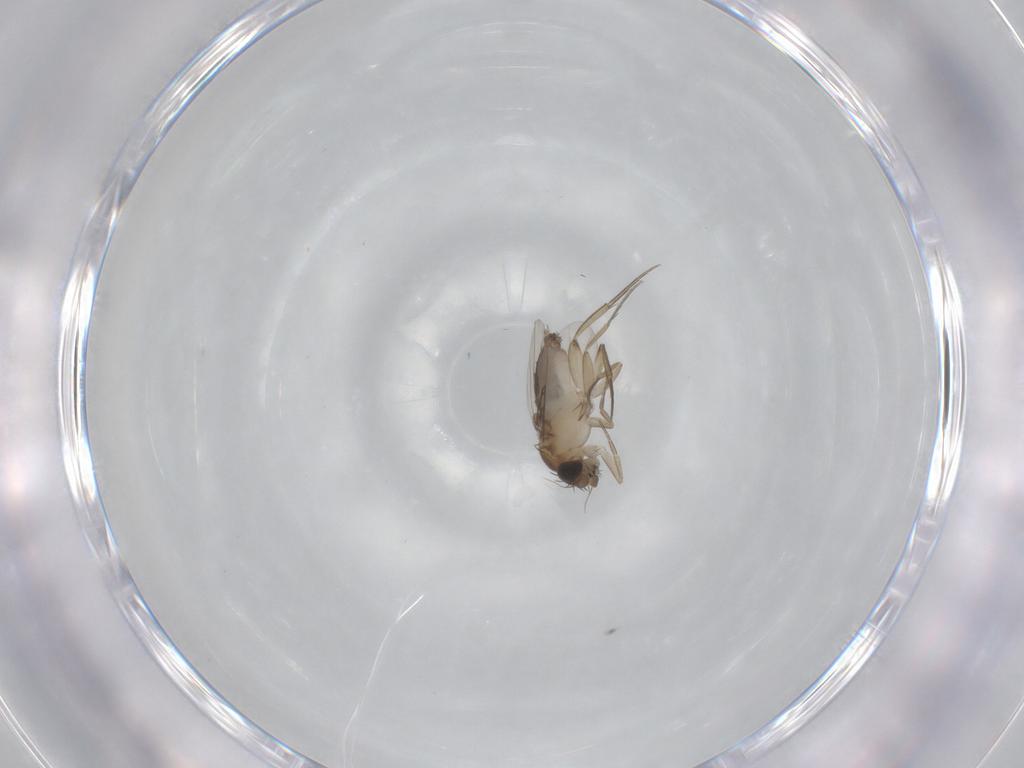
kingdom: Animalia
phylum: Arthropoda
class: Insecta
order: Diptera
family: Phoridae
